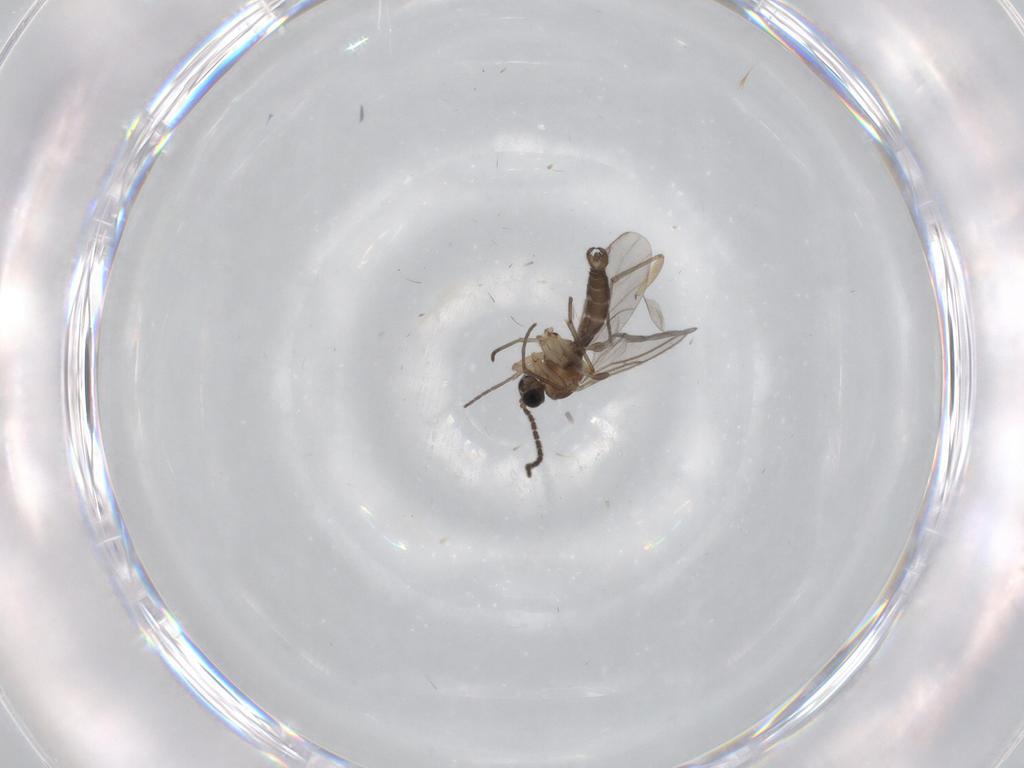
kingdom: Animalia
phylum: Arthropoda
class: Insecta
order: Diptera
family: Sciaridae
